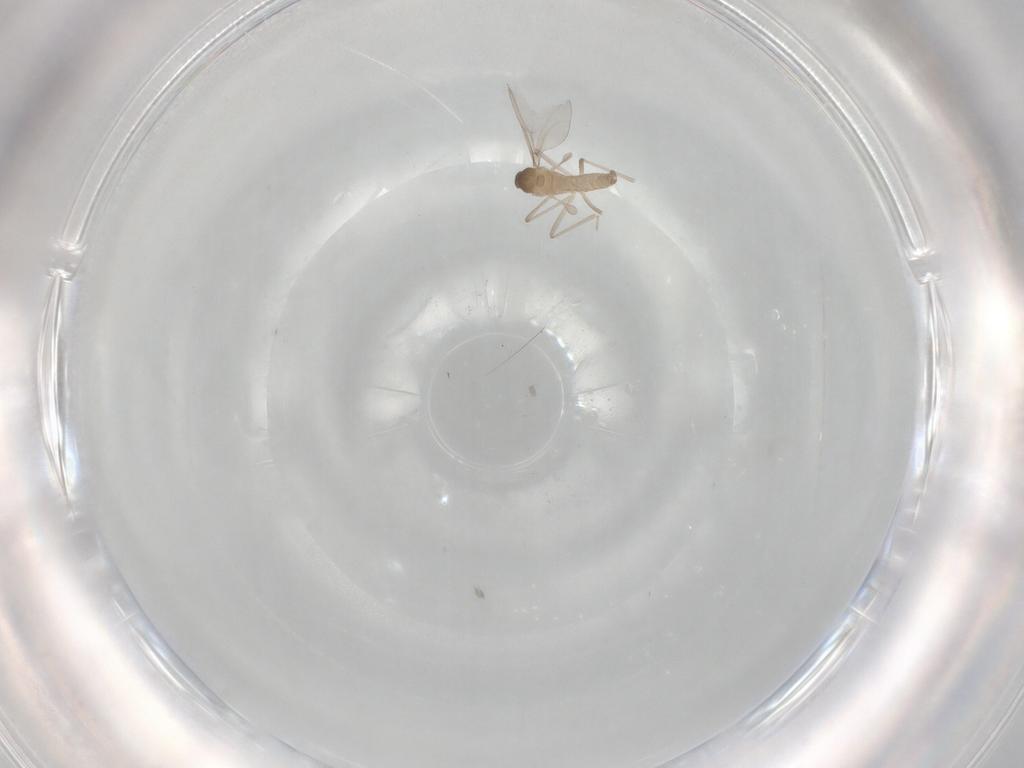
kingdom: Animalia
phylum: Arthropoda
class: Insecta
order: Diptera
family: Cecidomyiidae
